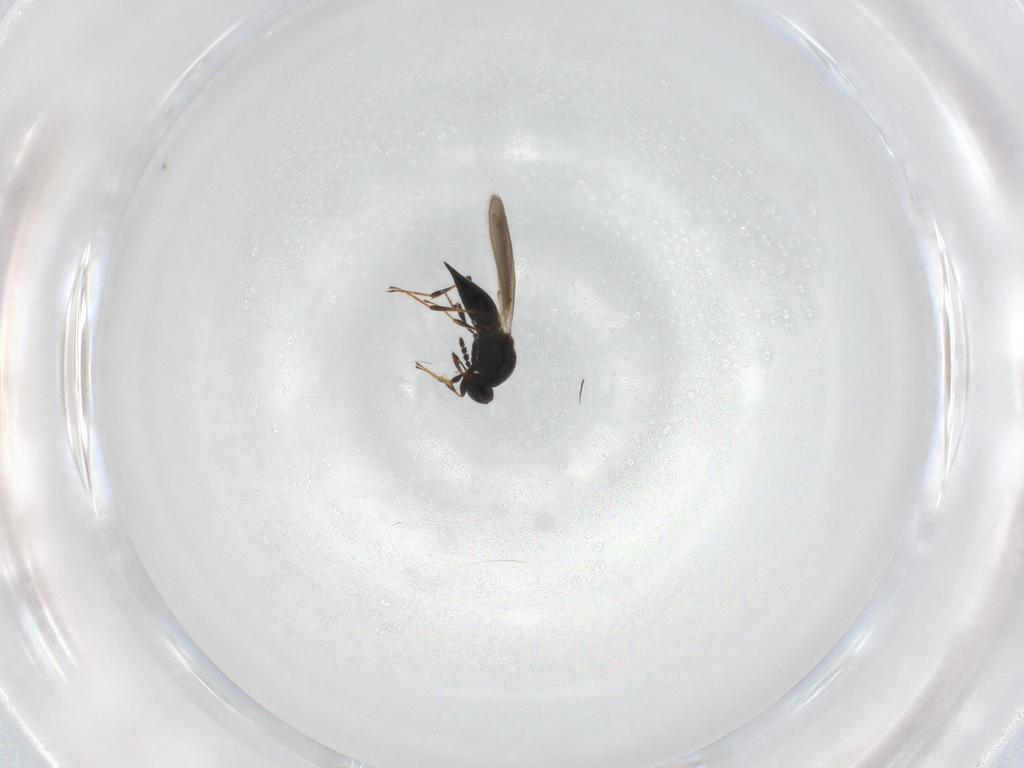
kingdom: Animalia
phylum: Arthropoda
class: Insecta
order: Hymenoptera
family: Platygastridae
